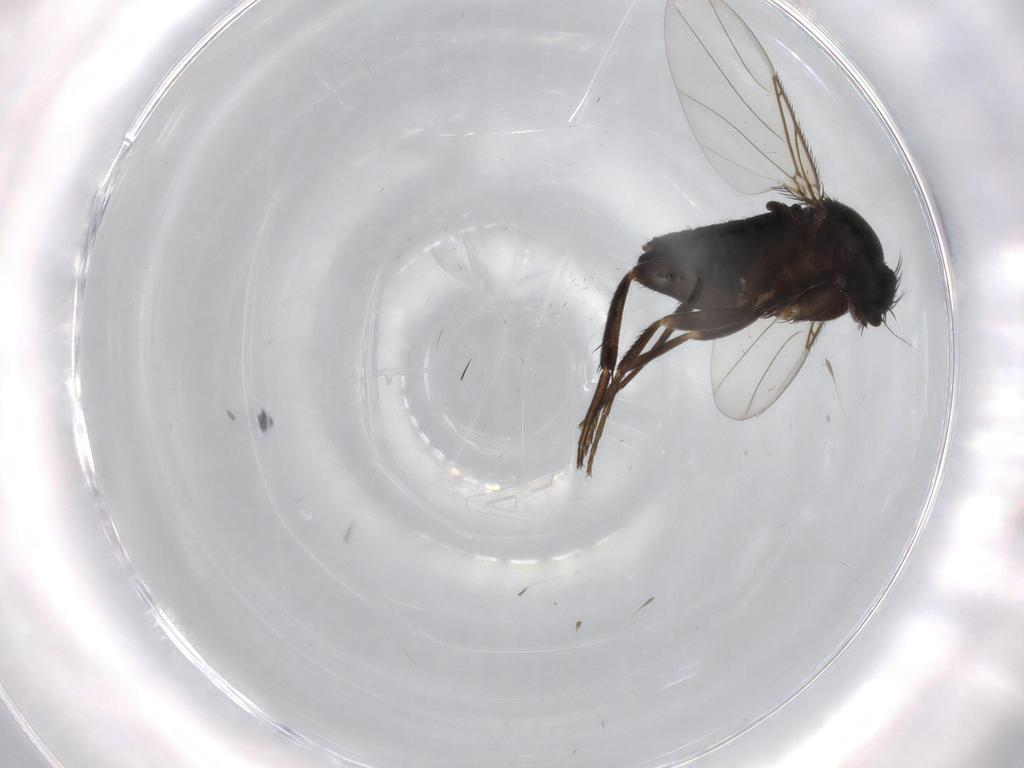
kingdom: Animalia
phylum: Arthropoda
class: Insecta
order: Diptera
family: Phoridae
